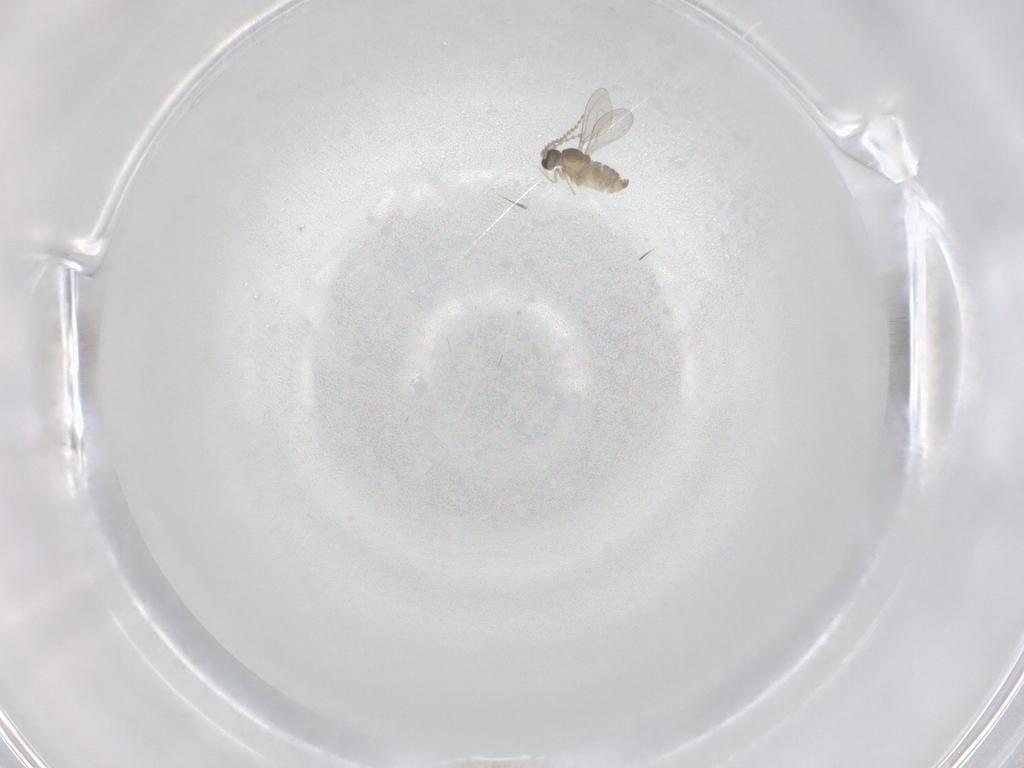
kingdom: Animalia
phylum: Arthropoda
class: Insecta
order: Diptera
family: Cecidomyiidae
